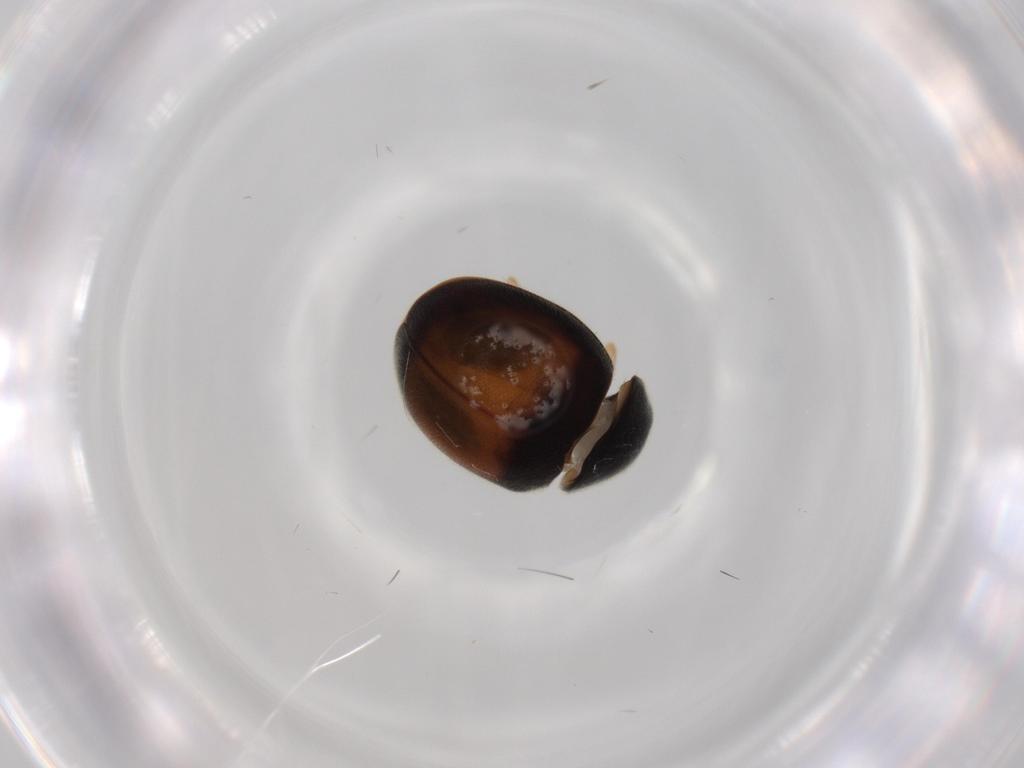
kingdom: Animalia
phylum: Arthropoda
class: Insecta
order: Coleoptera
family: Coccinellidae
